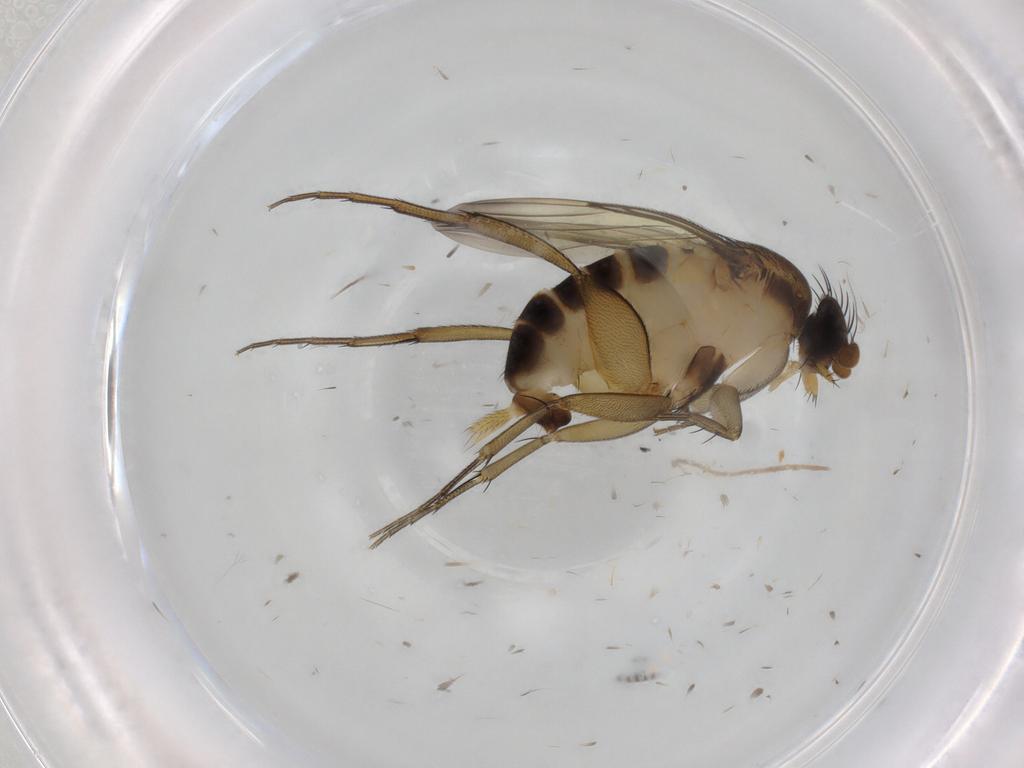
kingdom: Animalia
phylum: Arthropoda
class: Insecta
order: Diptera
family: Phoridae
